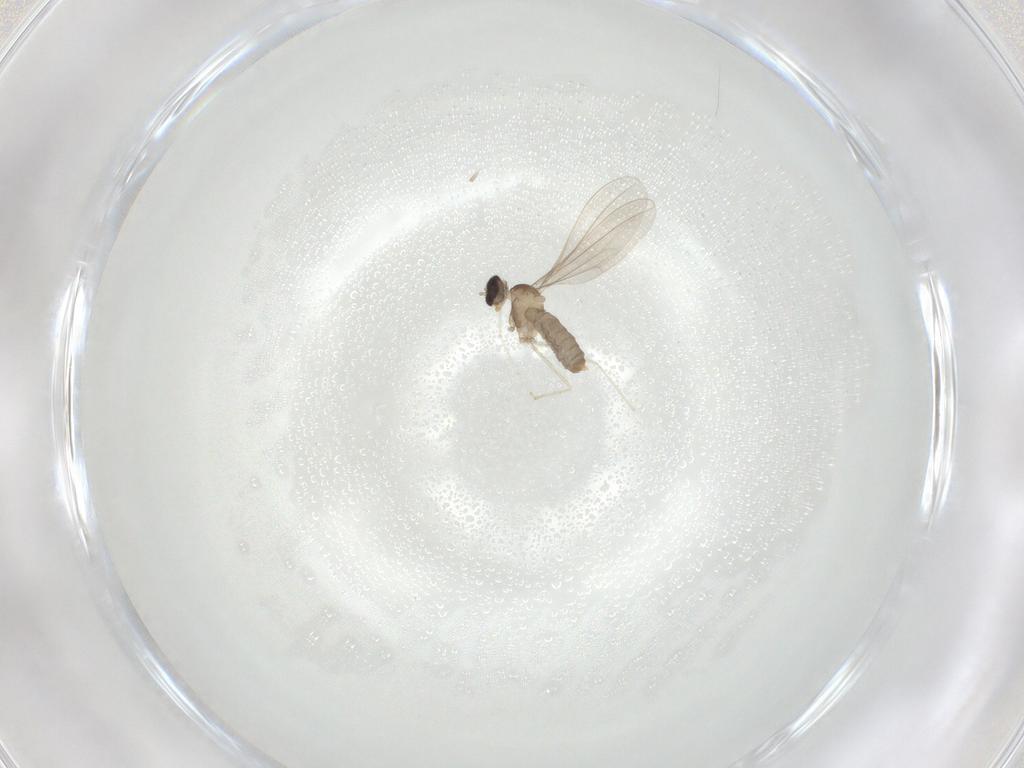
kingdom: Animalia
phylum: Arthropoda
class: Insecta
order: Diptera
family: Cecidomyiidae
